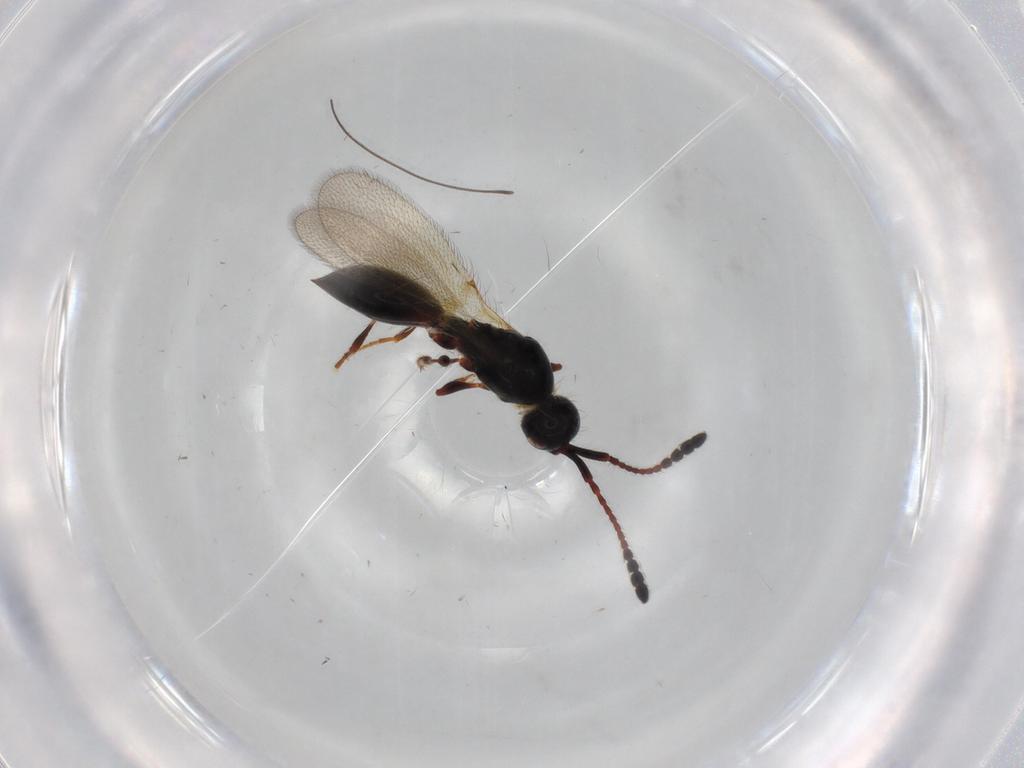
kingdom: Animalia
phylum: Arthropoda
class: Insecta
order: Hymenoptera
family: Diapriidae
